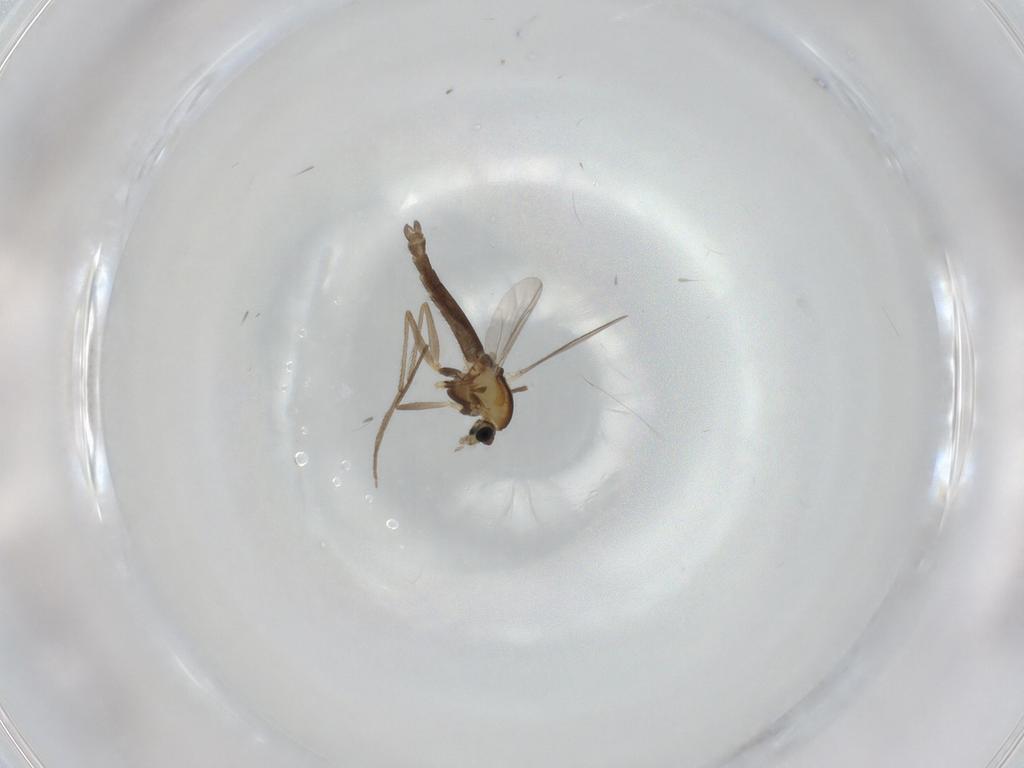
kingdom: Animalia
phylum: Arthropoda
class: Insecta
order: Diptera
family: Chironomidae
